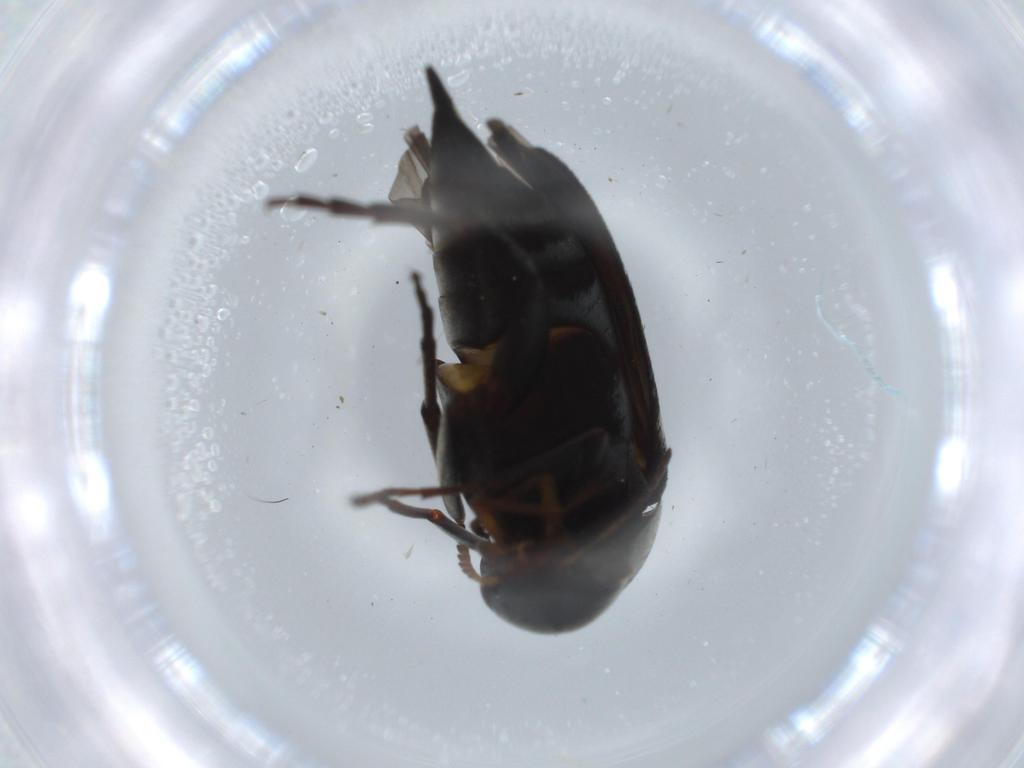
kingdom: Animalia
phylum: Arthropoda
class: Insecta
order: Coleoptera
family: Mordellidae
